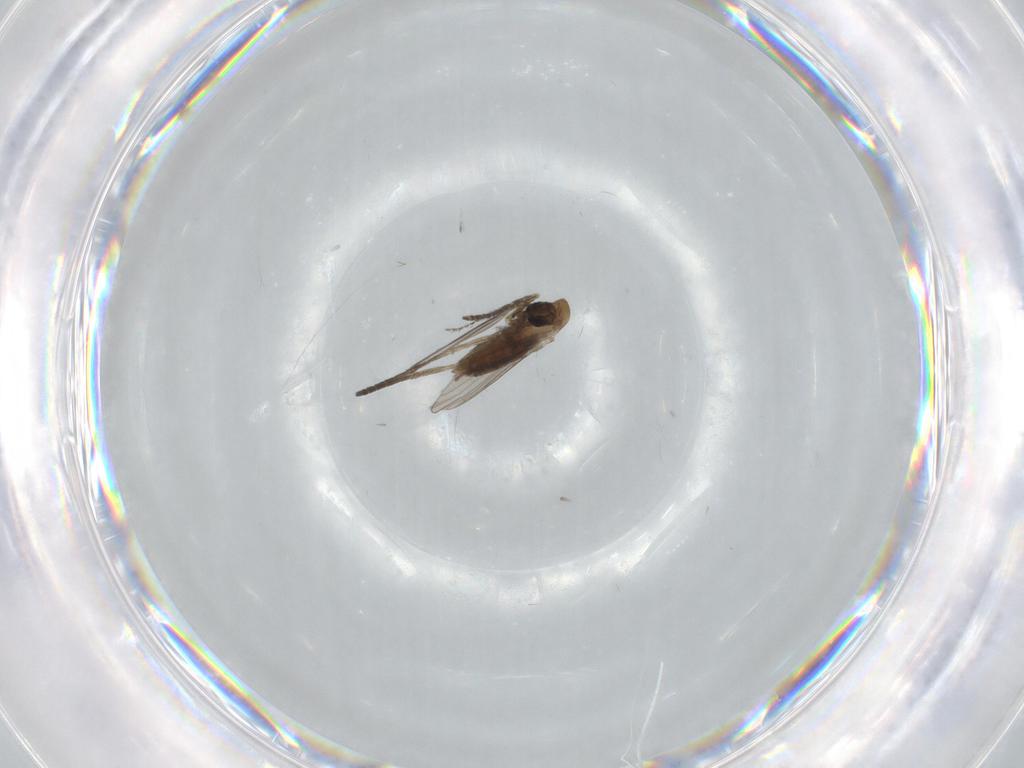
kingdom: Animalia
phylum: Arthropoda
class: Insecta
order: Diptera
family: Psychodidae
